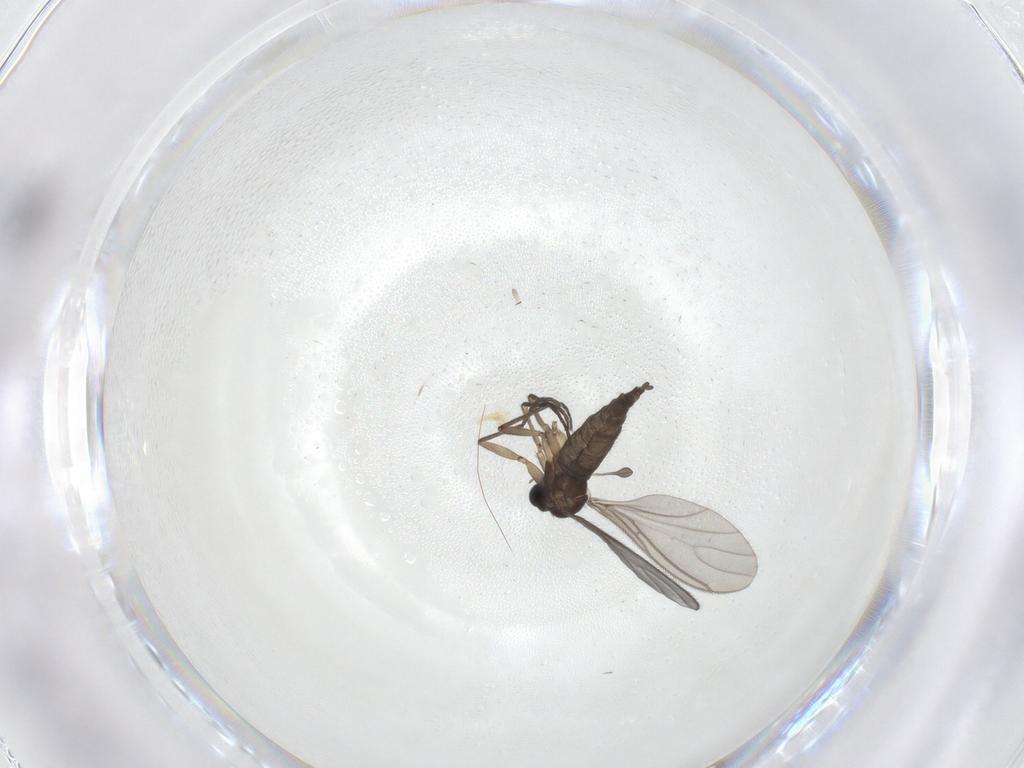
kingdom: Animalia
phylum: Arthropoda
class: Insecta
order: Diptera
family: Sciaridae
